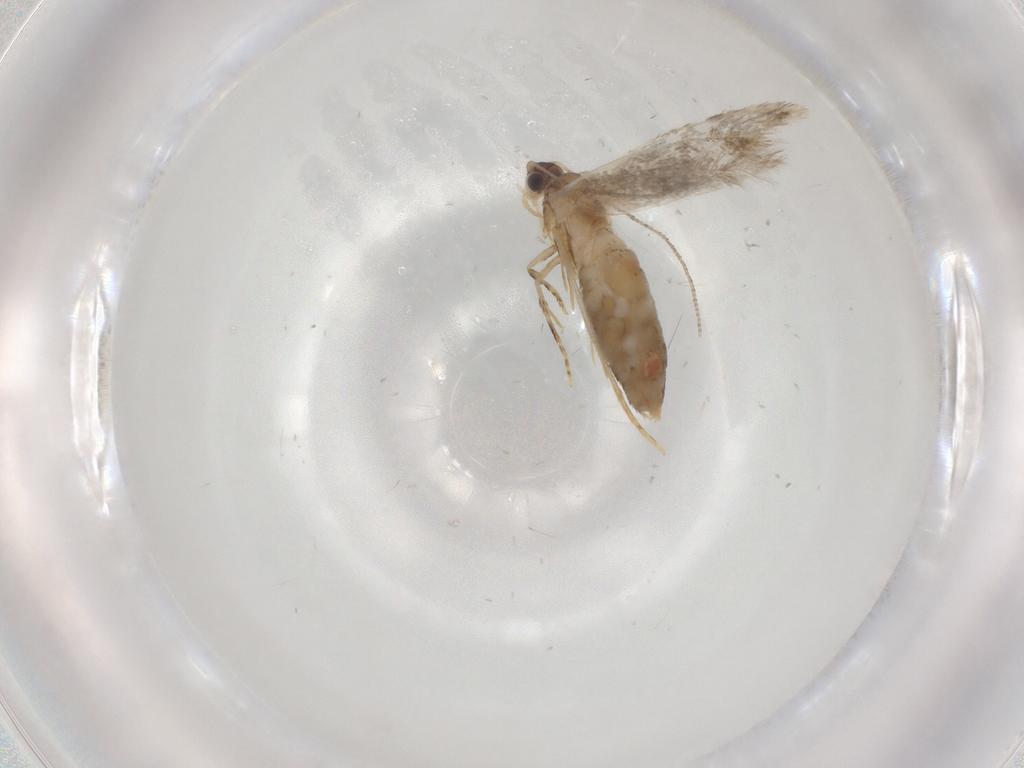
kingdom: Animalia
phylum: Arthropoda
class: Insecta
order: Lepidoptera
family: Tineidae
